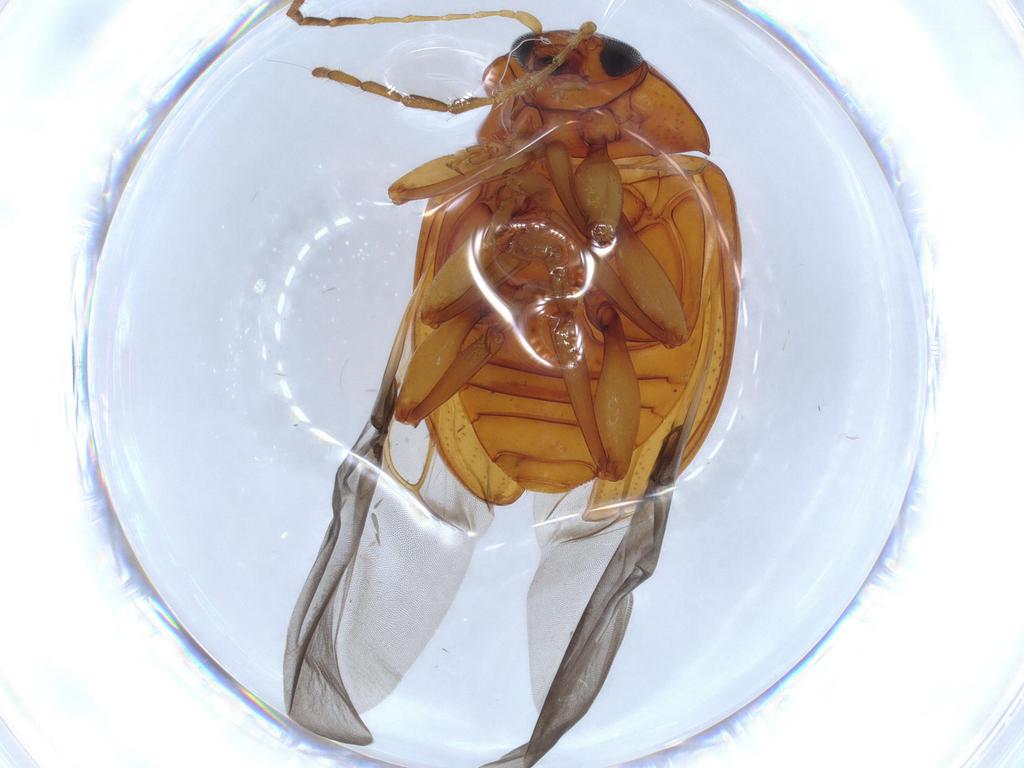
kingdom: Animalia
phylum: Arthropoda
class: Insecta
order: Coleoptera
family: Chrysomelidae
